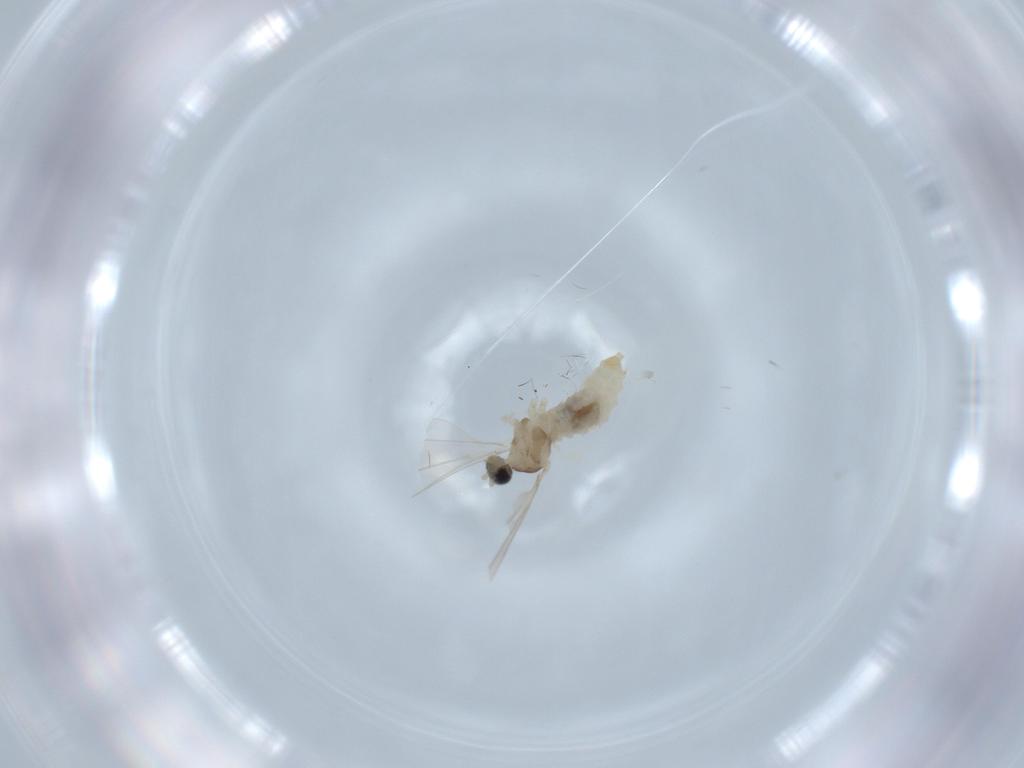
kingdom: Animalia
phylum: Arthropoda
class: Insecta
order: Diptera
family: Cecidomyiidae
